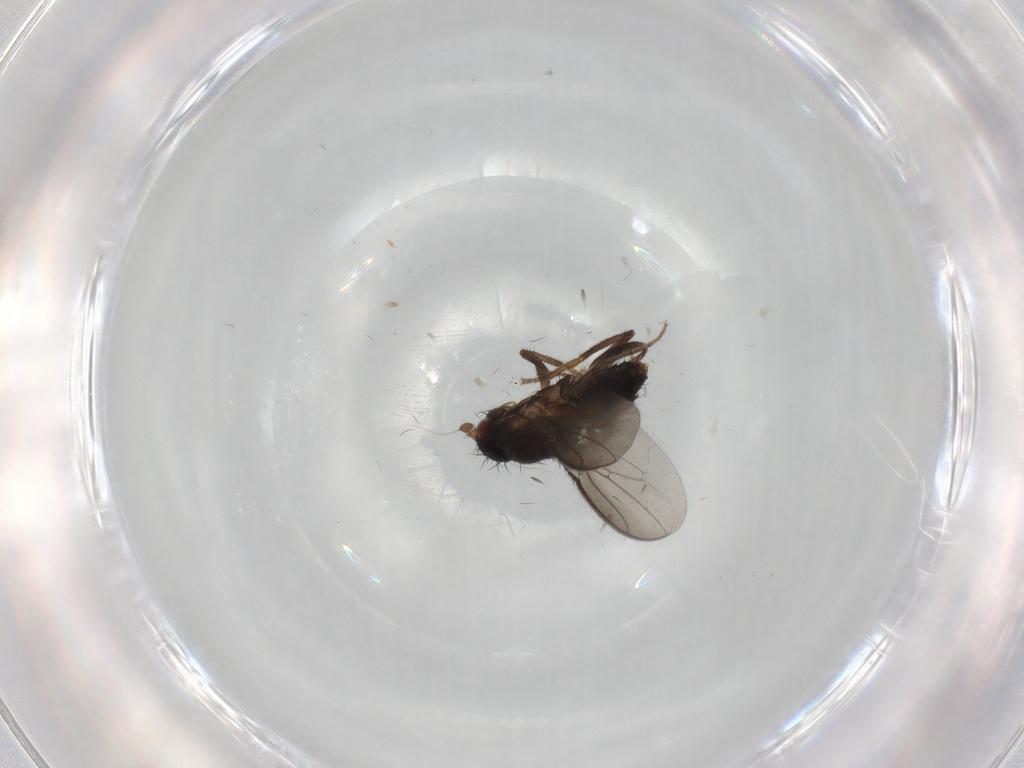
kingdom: Animalia
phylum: Arthropoda
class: Insecta
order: Diptera
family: Sphaeroceridae
